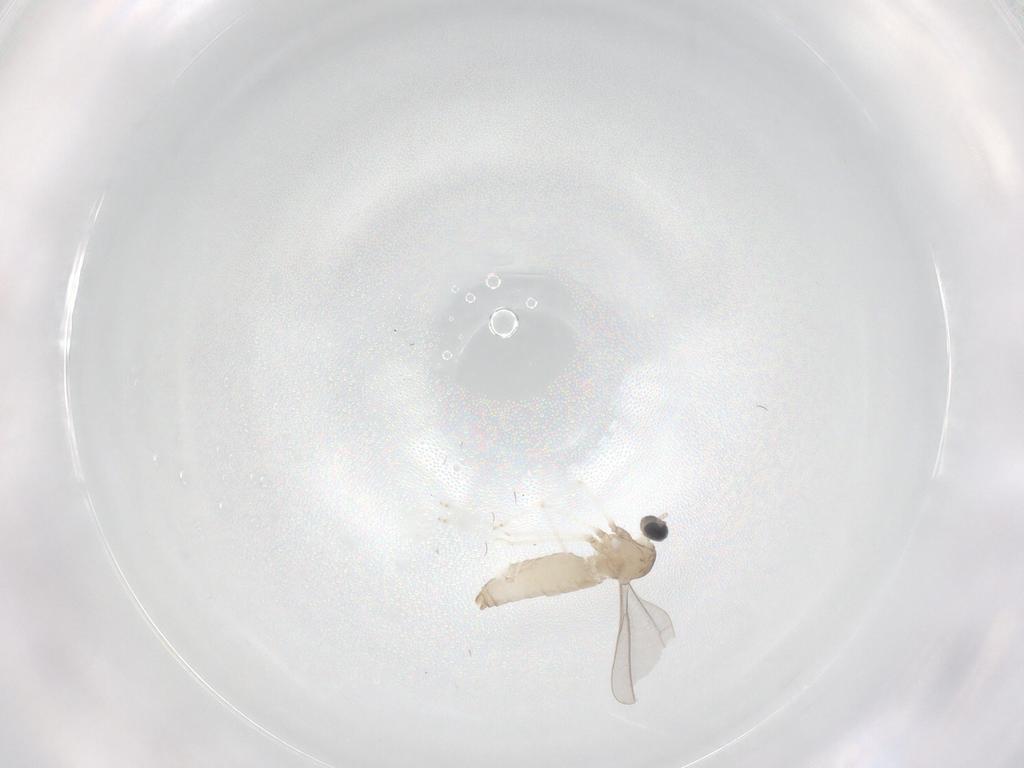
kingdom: Animalia
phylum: Arthropoda
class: Insecta
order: Diptera
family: Cecidomyiidae
